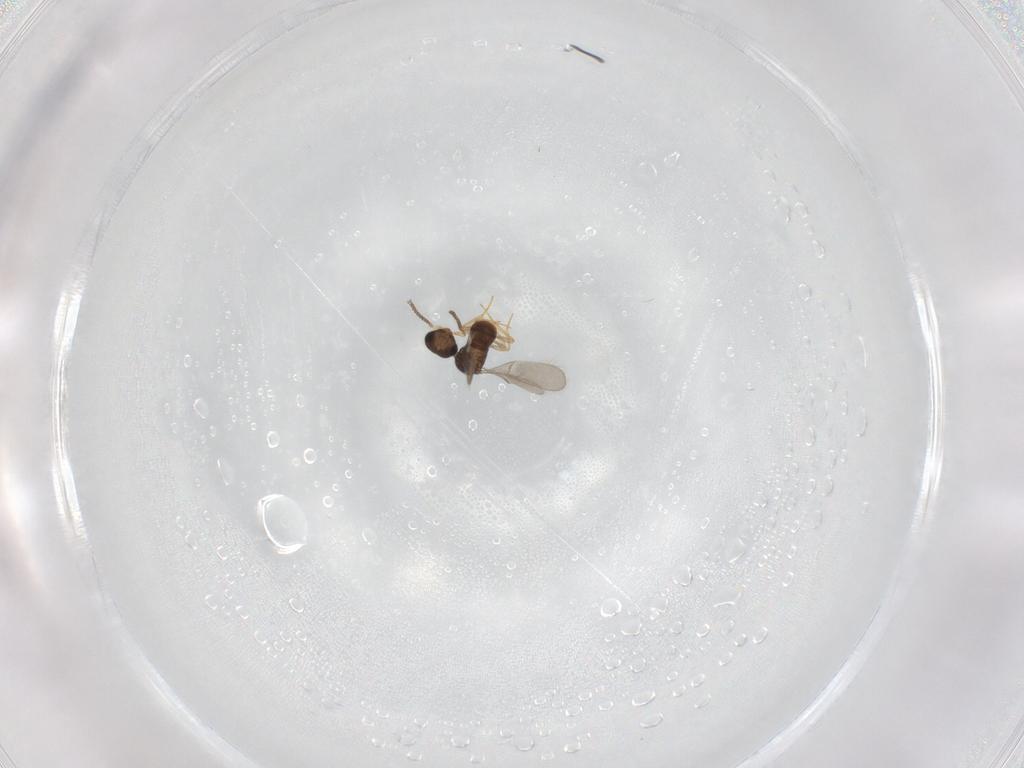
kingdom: Animalia
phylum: Arthropoda
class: Insecta
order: Hymenoptera
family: Scelionidae
